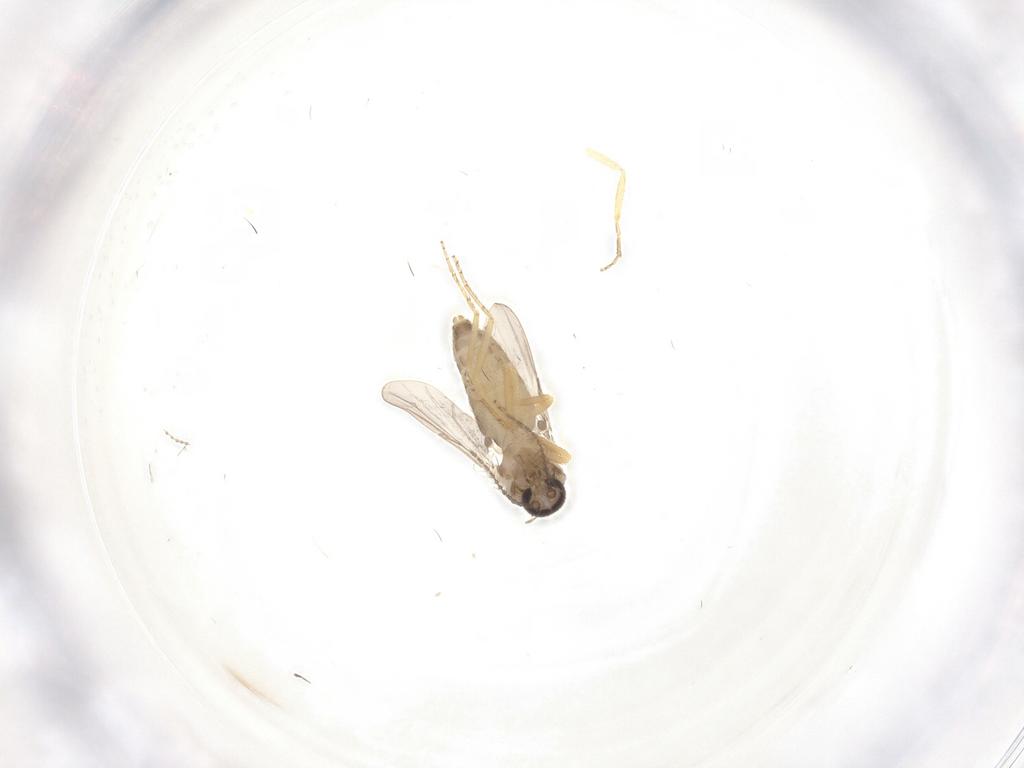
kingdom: Animalia
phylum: Arthropoda
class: Insecta
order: Diptera
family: Ceratopogonidae
